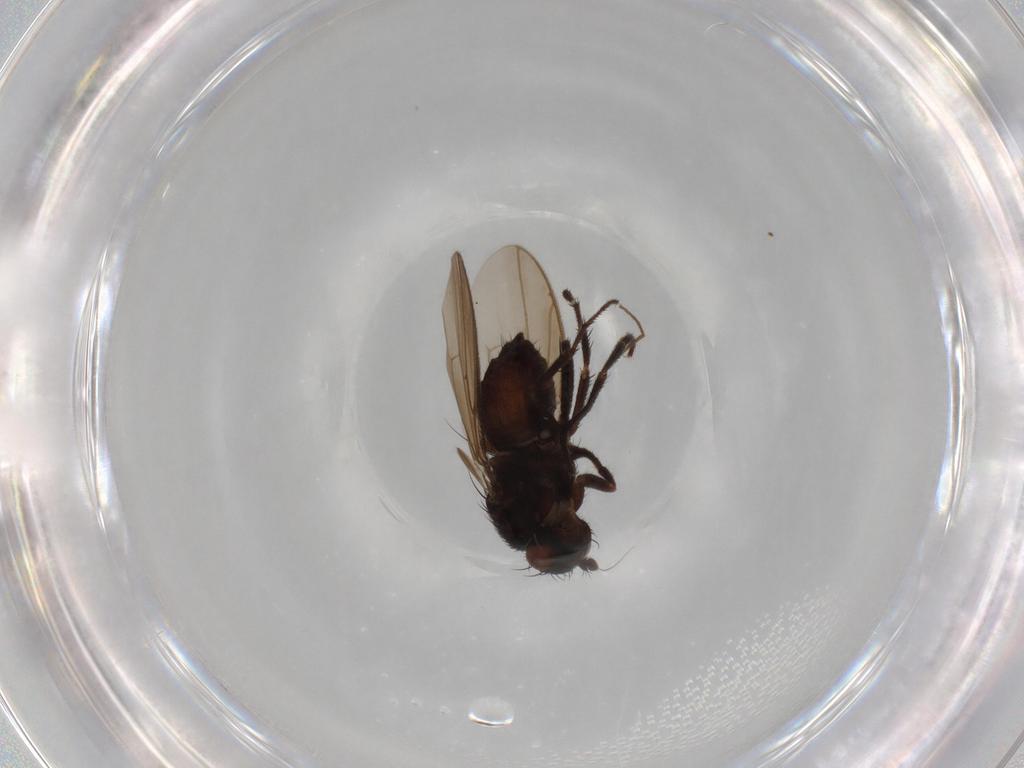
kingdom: Animalia
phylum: Arthropoda
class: Insecta
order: Diptera
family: Sphaeroceridae
